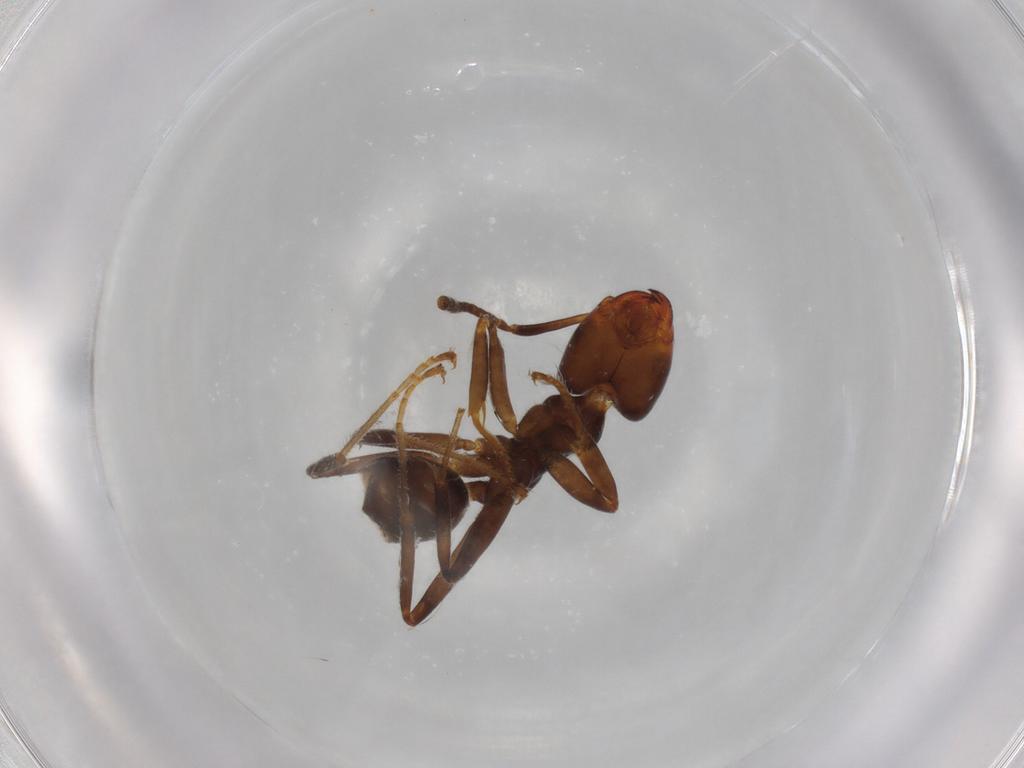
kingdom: Animalia
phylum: Arthropoda
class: Insecta
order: Hymenoptera
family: Formicidae
